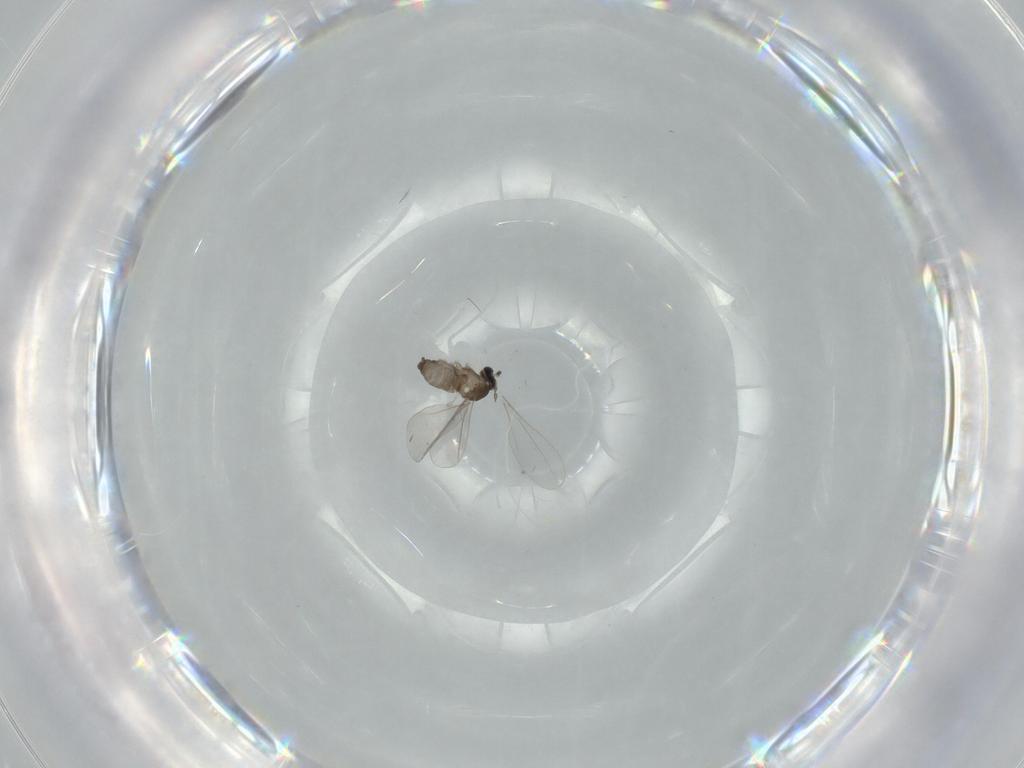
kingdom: Animalia
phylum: Arthropoda
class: Insecta
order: Diptera
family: Cecidomyiidae
